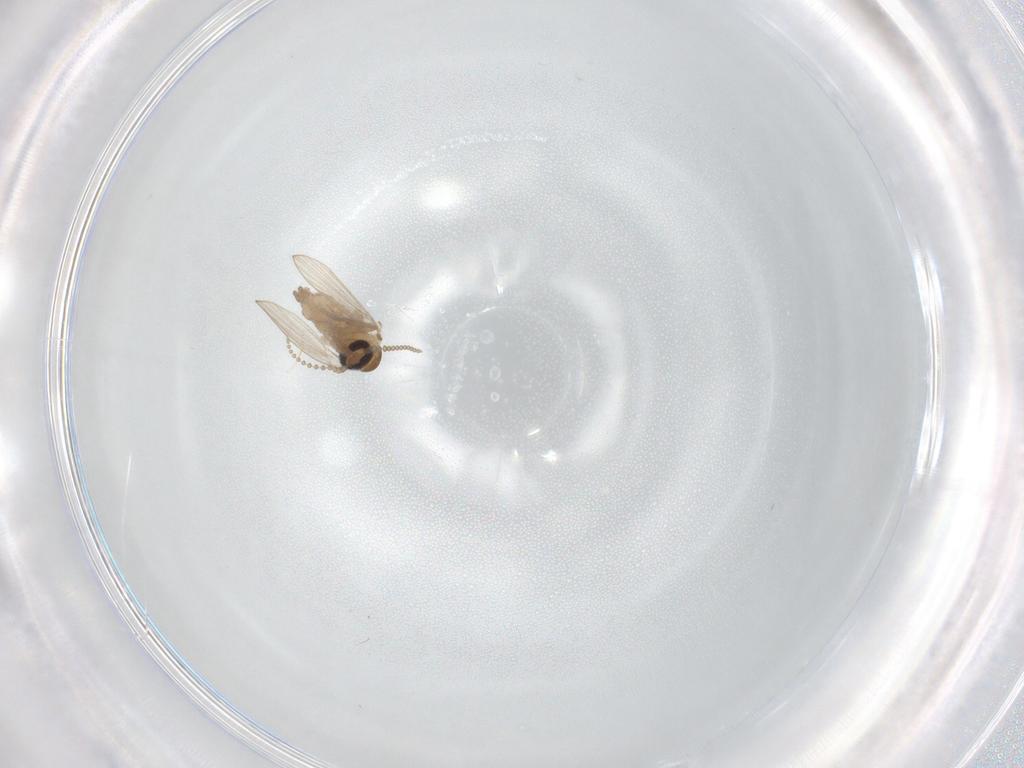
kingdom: Animalia
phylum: Arthropoda
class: Insecta
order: Diptera
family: Psychodidae
